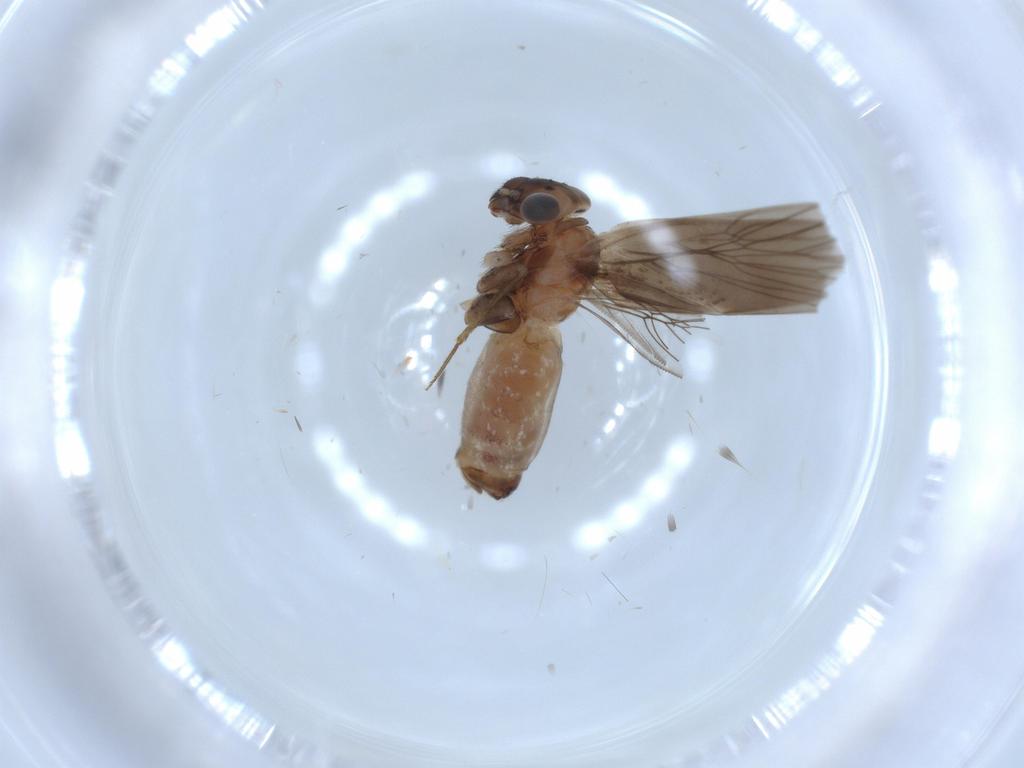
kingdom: Animalia
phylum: Arthropoda
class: Insecta
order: Psocodea
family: Lepidopsocidae
